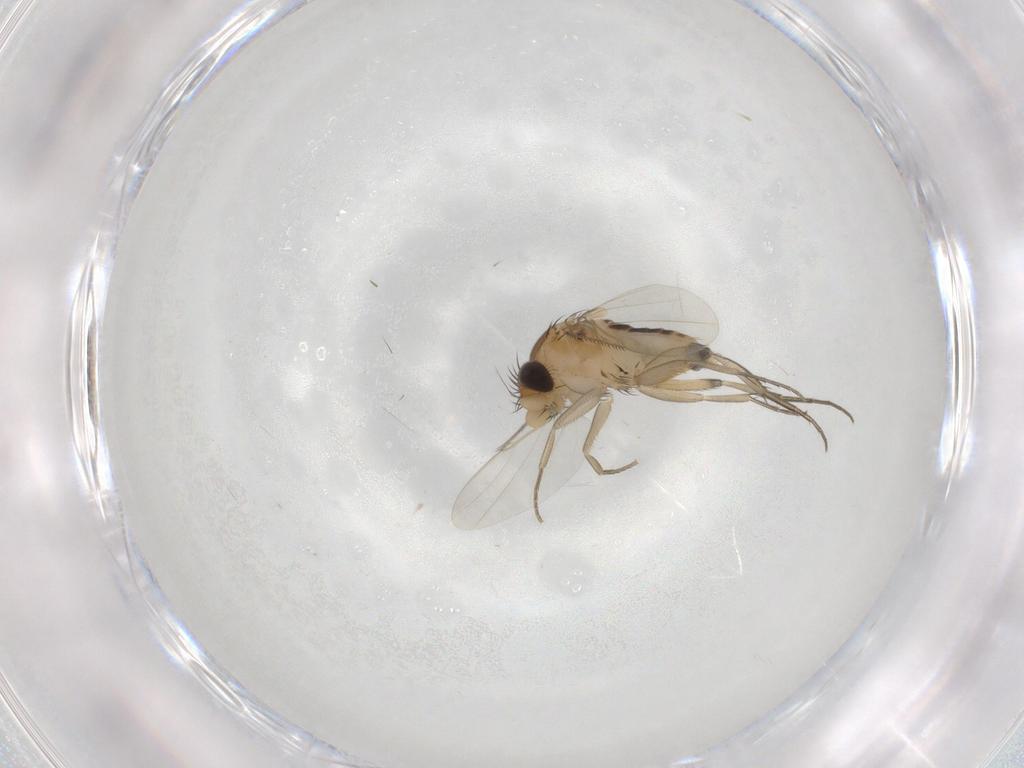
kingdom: Animalia
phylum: Arthropoda
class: Insecta
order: Diptera
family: Phoridae
